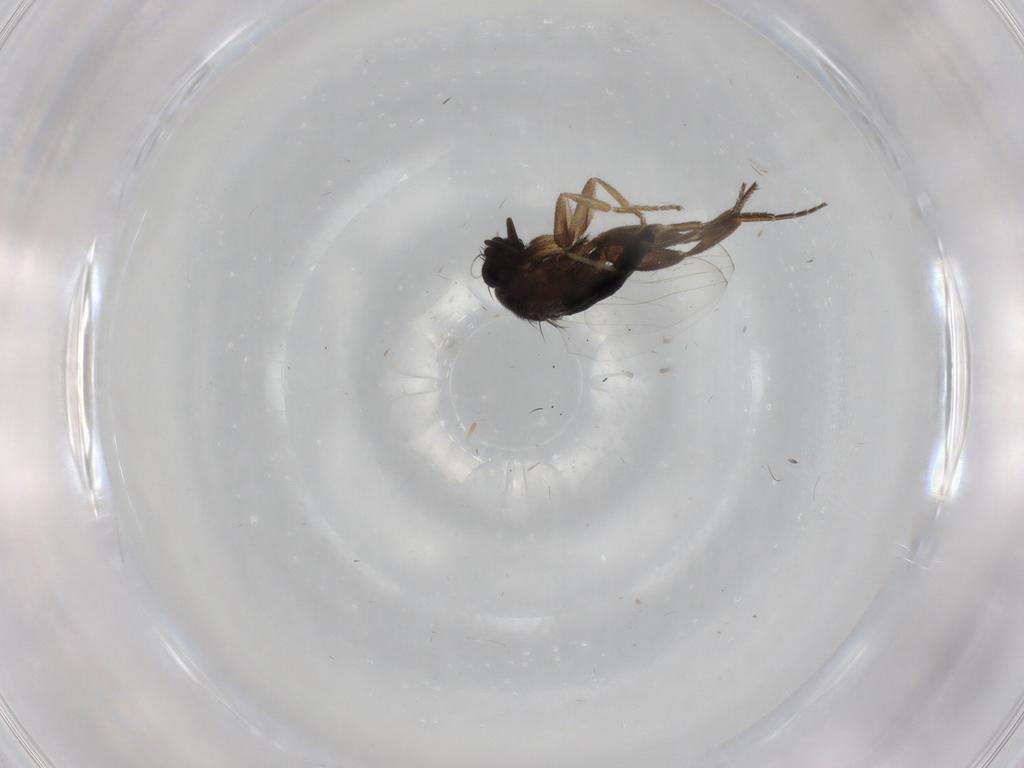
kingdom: Animalia
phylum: Arthropoda
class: Insecta
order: Diptera
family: Phoridae
